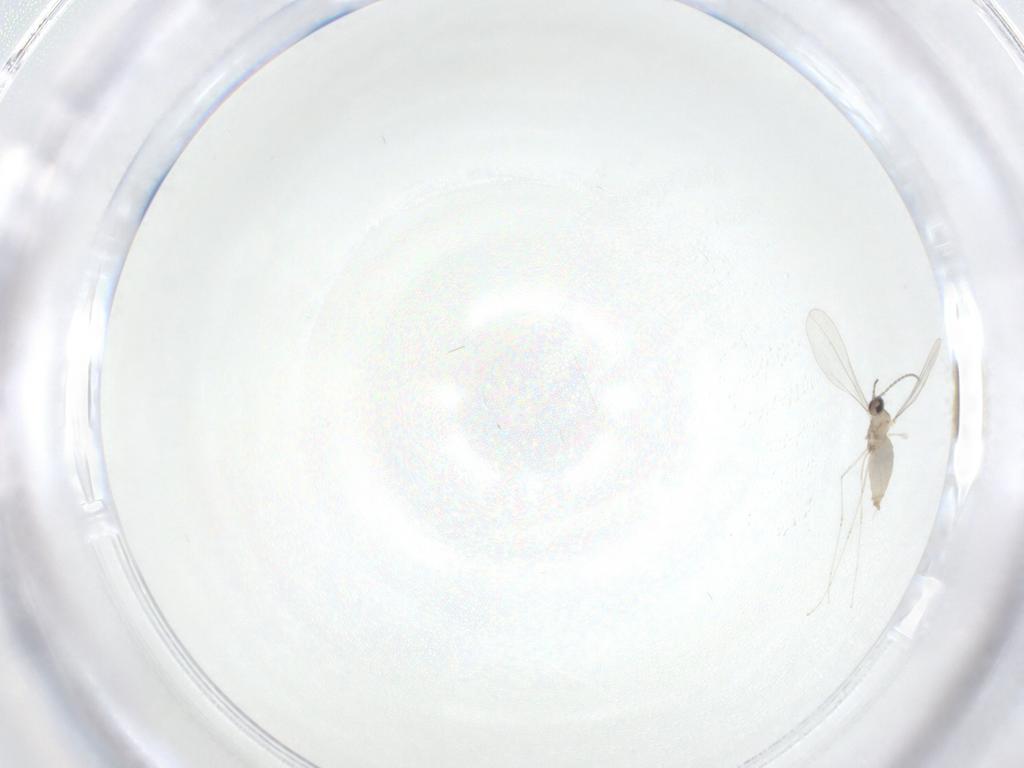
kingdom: Animalia
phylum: Arthropoda
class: Insecta
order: Diptera
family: Cecidomyiidae
